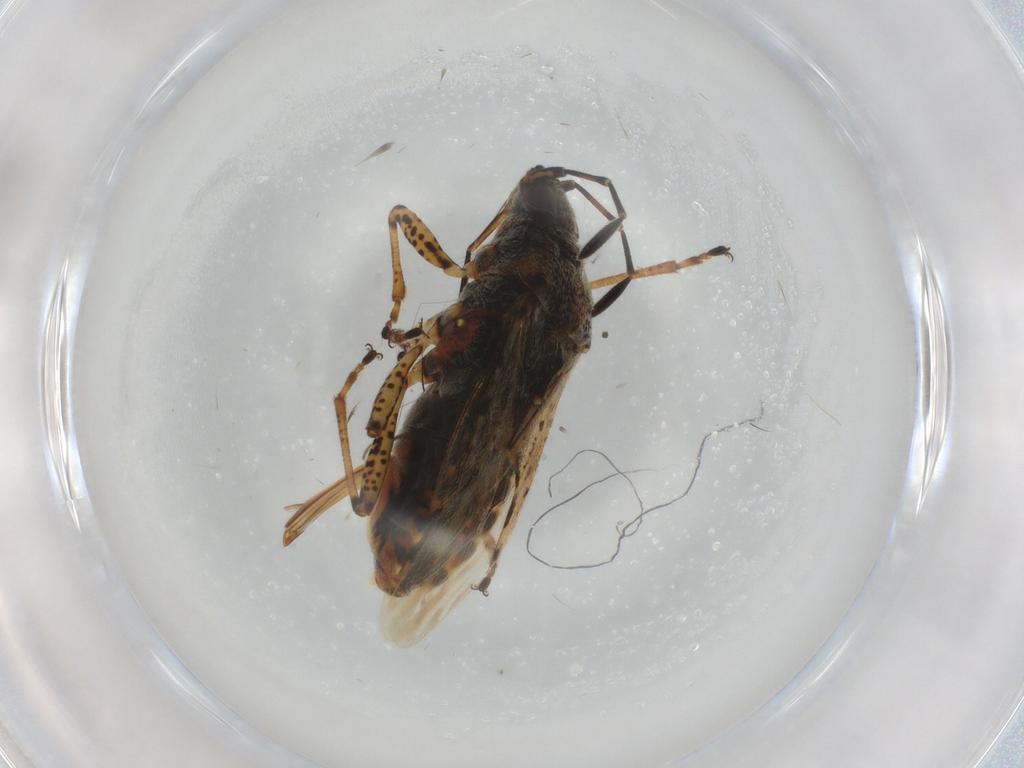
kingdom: Animalia
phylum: Arthropoda
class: Insecta
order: Hemiptera
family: Lygaeidae
